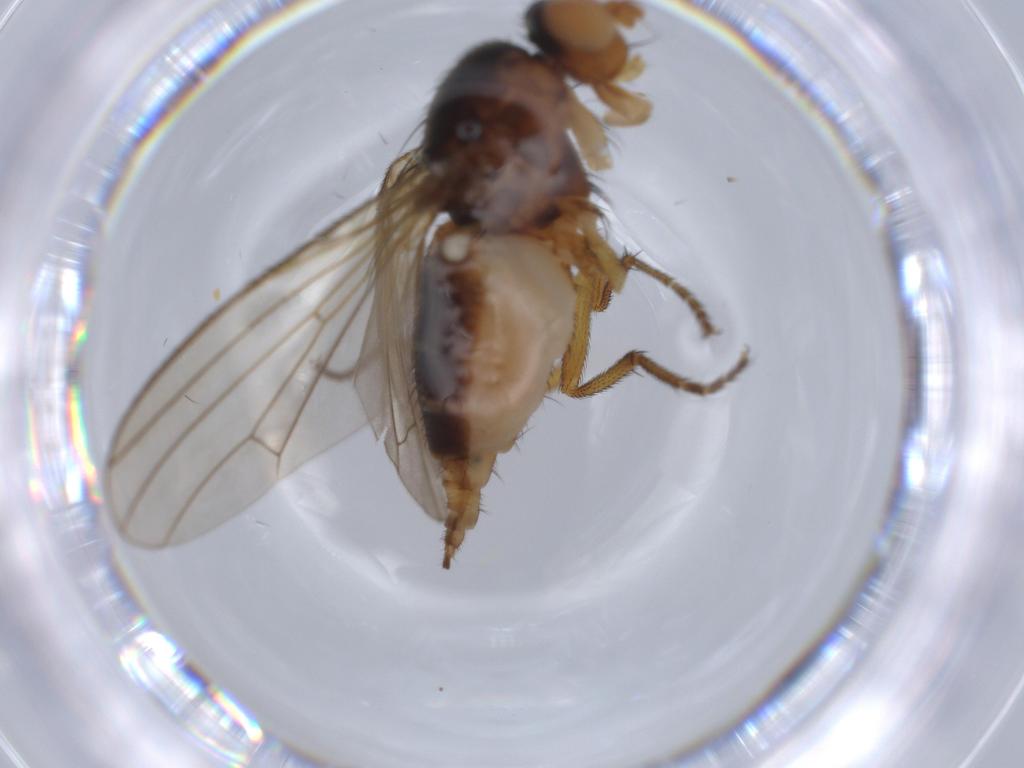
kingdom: Animalia
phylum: Arthropoda
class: Insecta
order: Diptera
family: Heleomyzidae
